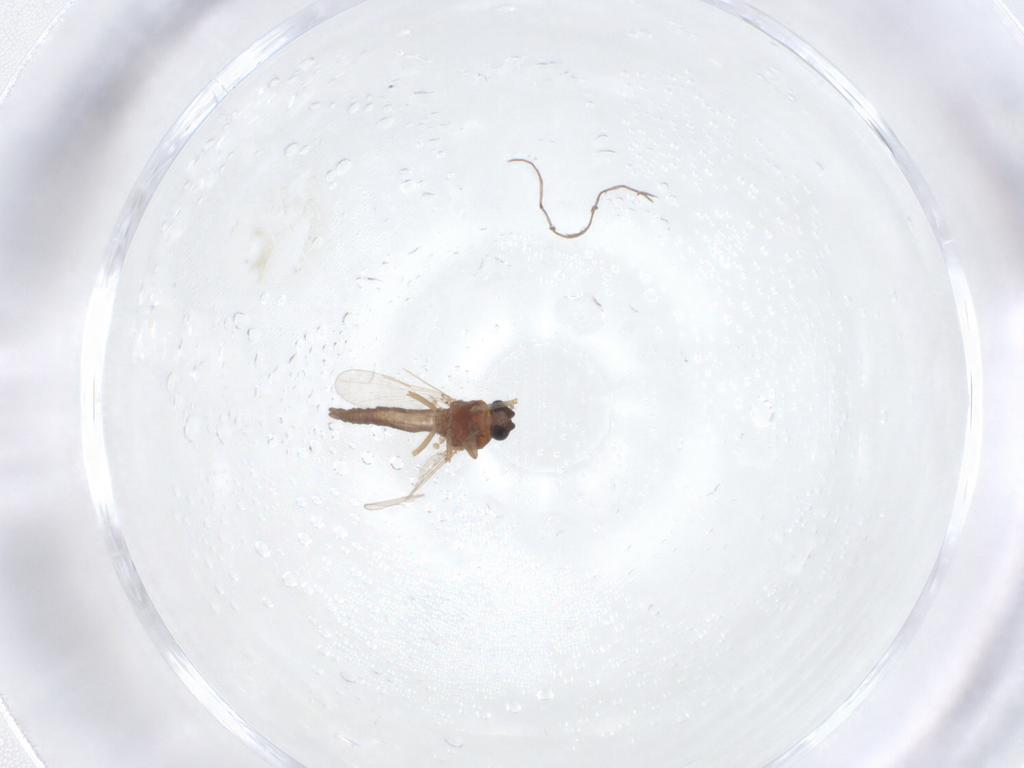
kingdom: Animalia
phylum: Arthropoda
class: Insecta
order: Diptera
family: Ceratopogonidae
